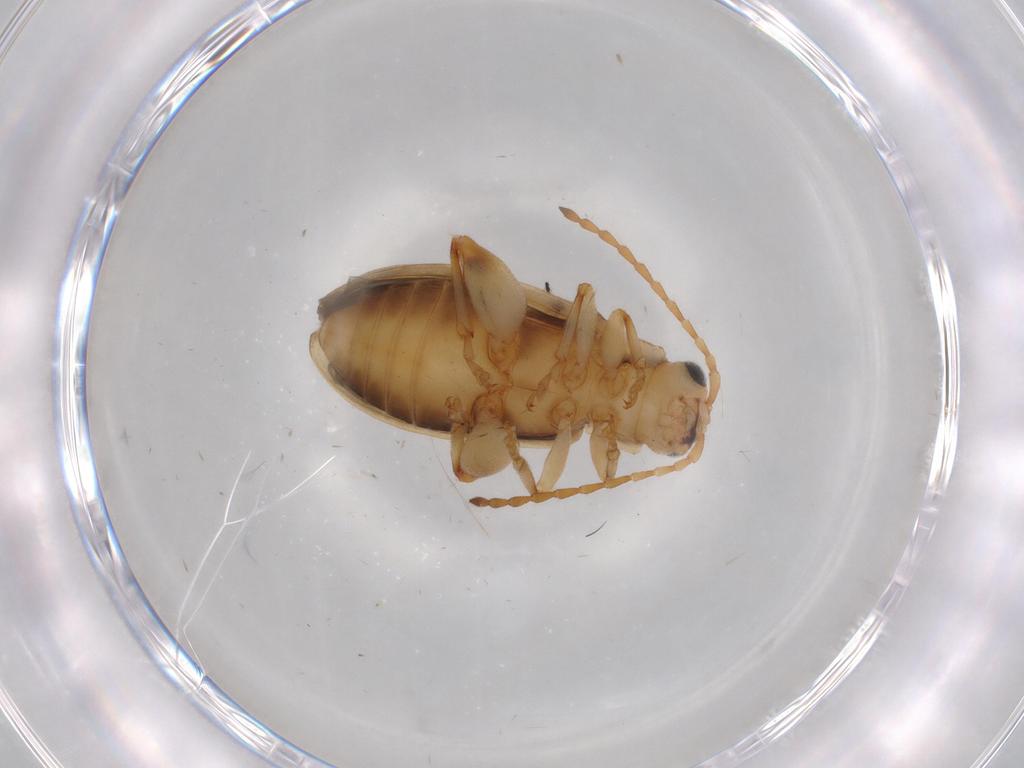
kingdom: Animalia
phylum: Arthropoda
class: Insecta
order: Coleoptera
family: Chrysomelidae
